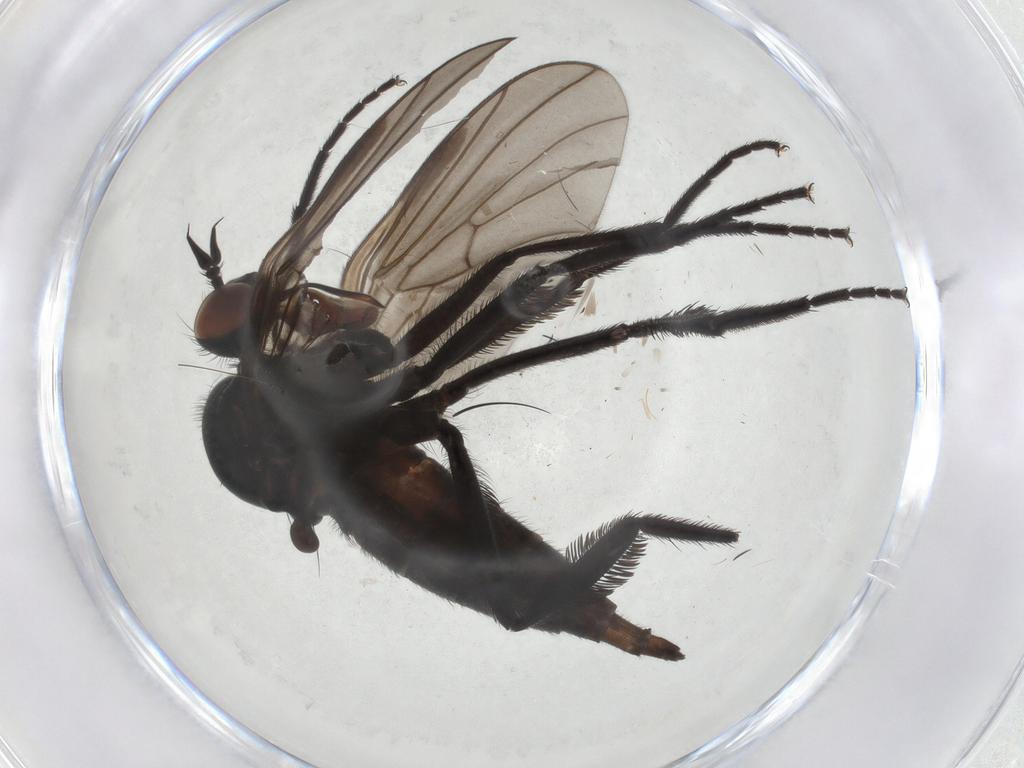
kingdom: Animalia
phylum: Arthropoda
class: Insecta
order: Diptera
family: Empididae
